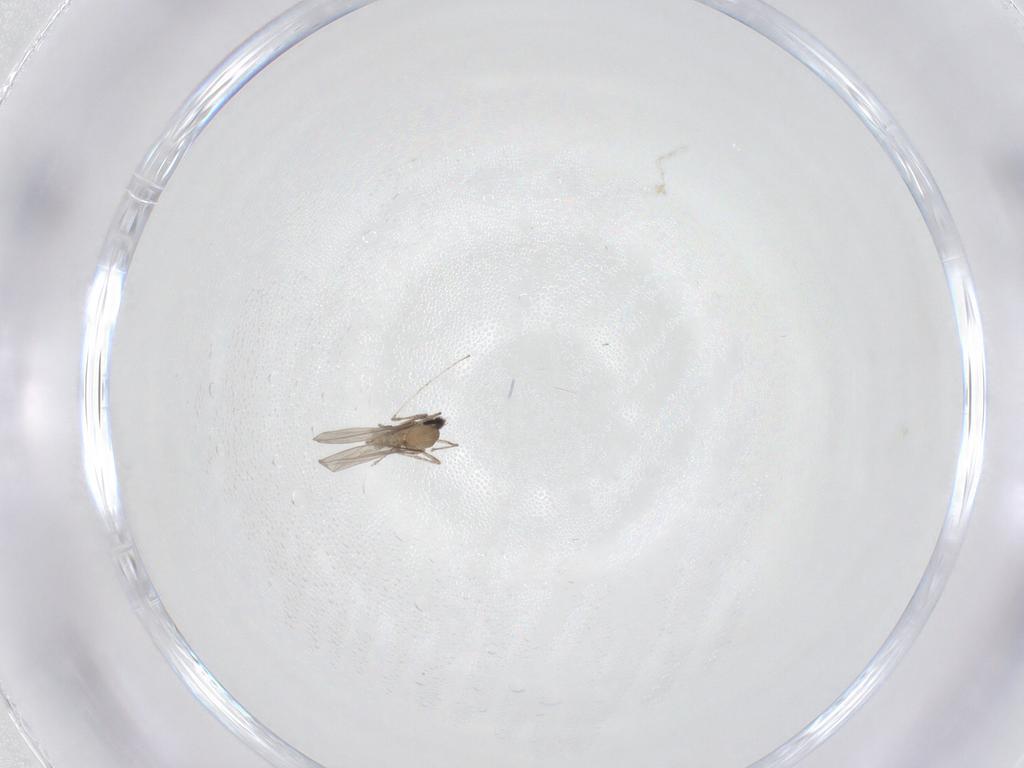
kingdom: Animalia
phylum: Arthropoda
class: Insecta
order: Diptera
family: Cecidomyiidae
